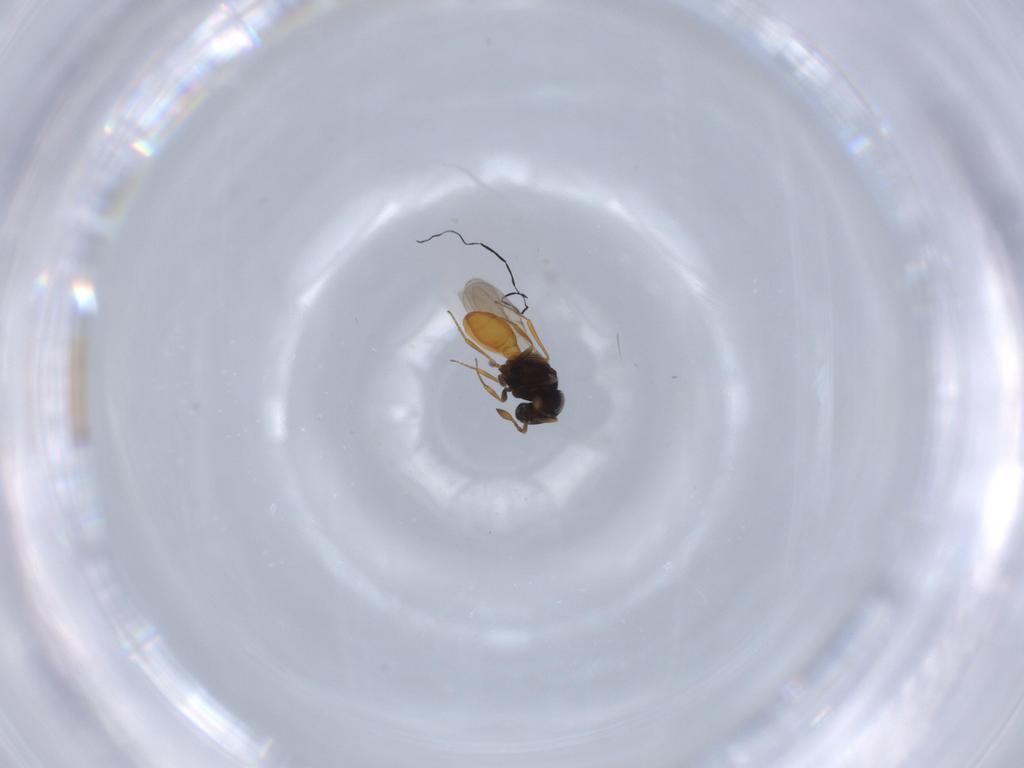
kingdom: Animalia
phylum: Arthropoda
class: Insecta
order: Hymenoptera
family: Scelionidae
